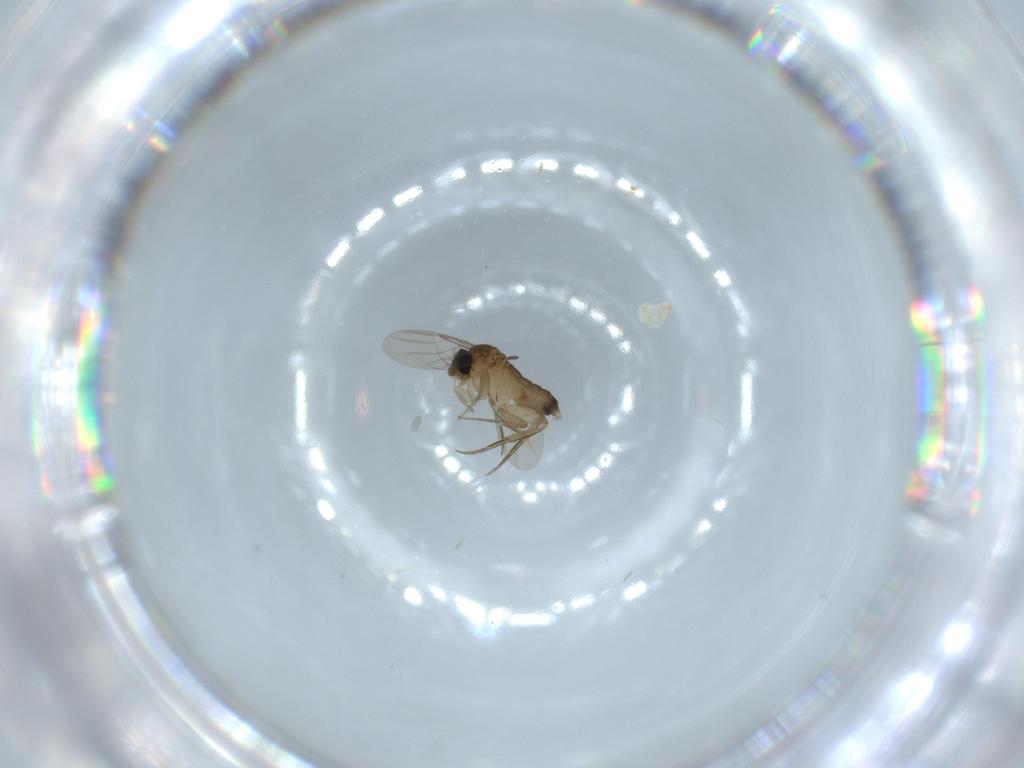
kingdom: Animalia
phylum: Arthropoda
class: Insecta
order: Diptera
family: Phoridae
